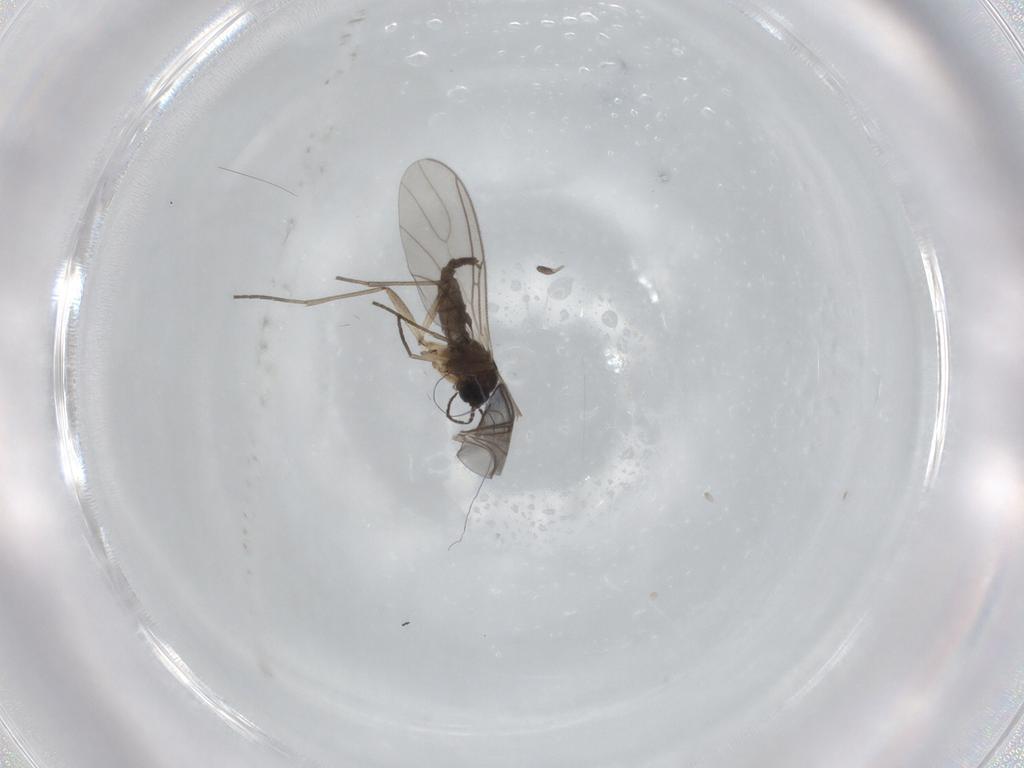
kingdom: Animalia
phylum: Arthropoda
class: Insecta
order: Diptera
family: Sciaridae
